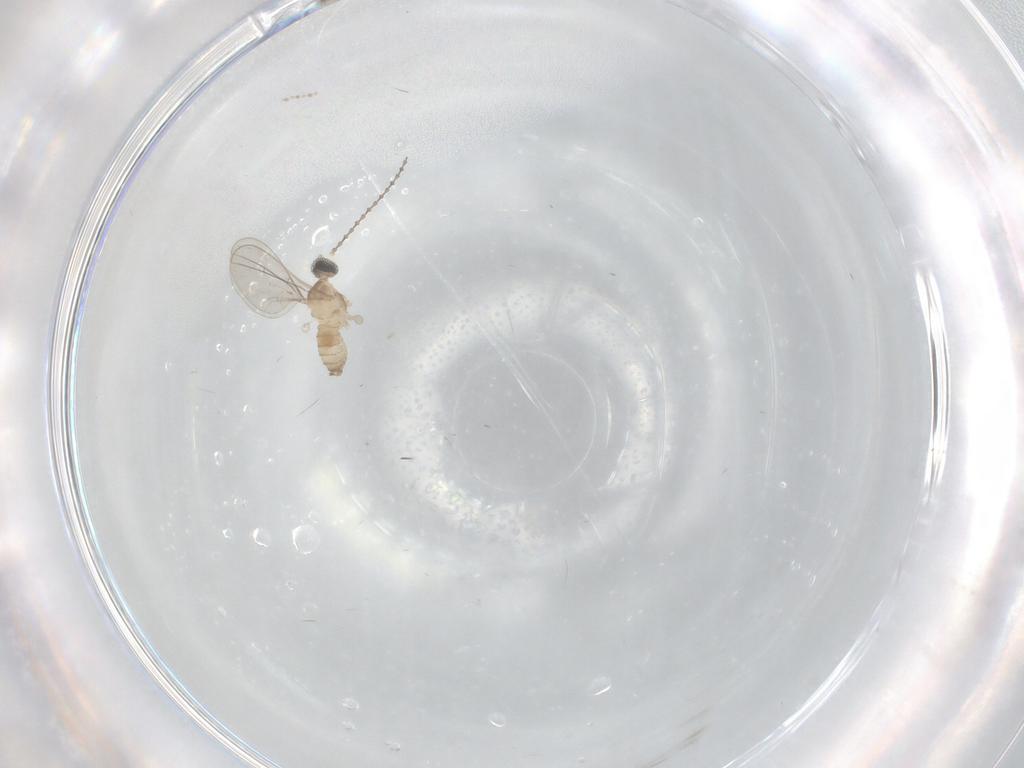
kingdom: Animalia
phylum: Arthropoda
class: Insecta
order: Diptera
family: Cecidomyiidae
